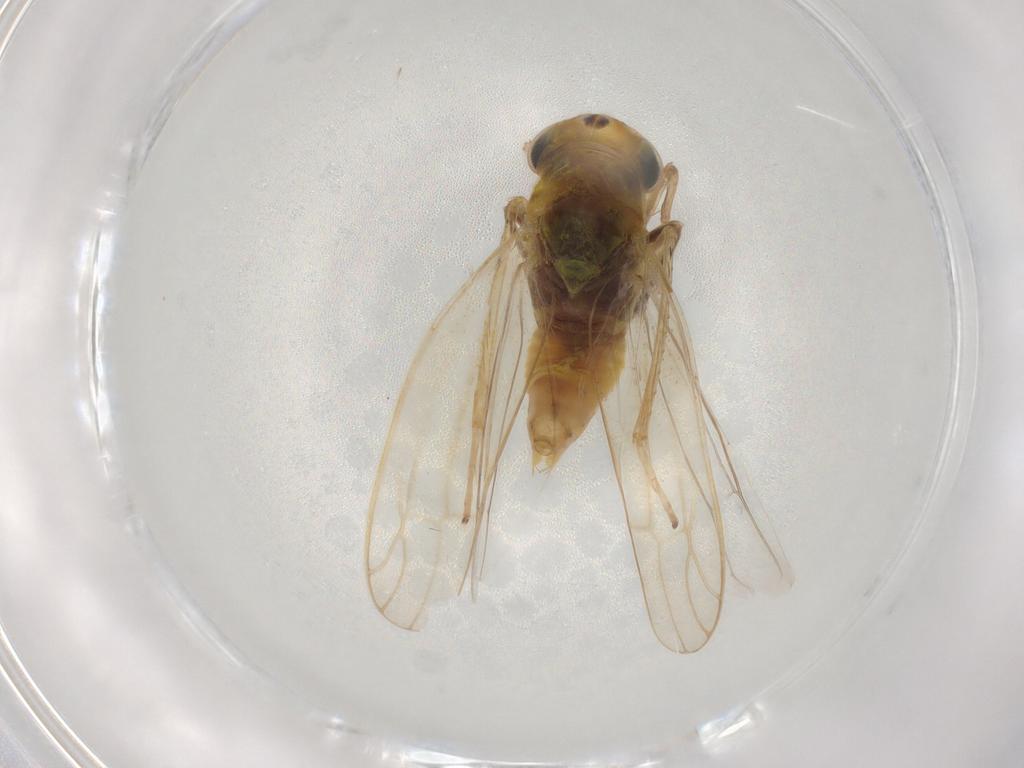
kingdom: Animalia
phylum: Arthropoda
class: Insecta
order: Hemiptera
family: Cicadellidae
